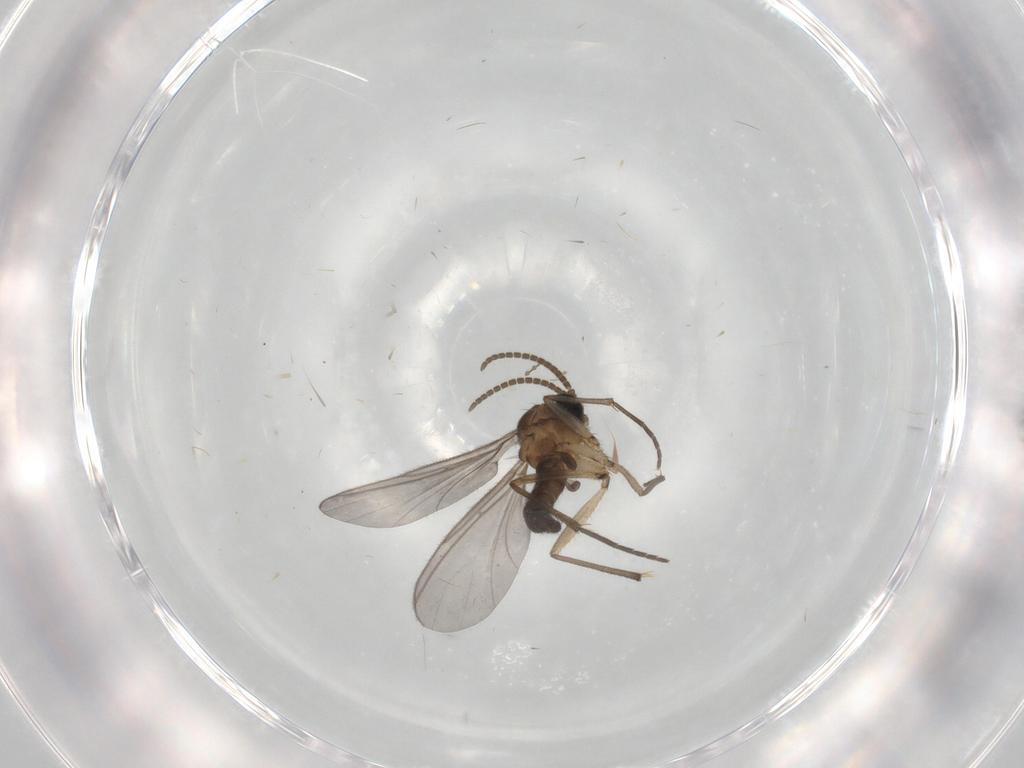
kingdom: Animalia
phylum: Arthropoda
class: Insecta
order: Diptera
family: Cecidomyiidae
